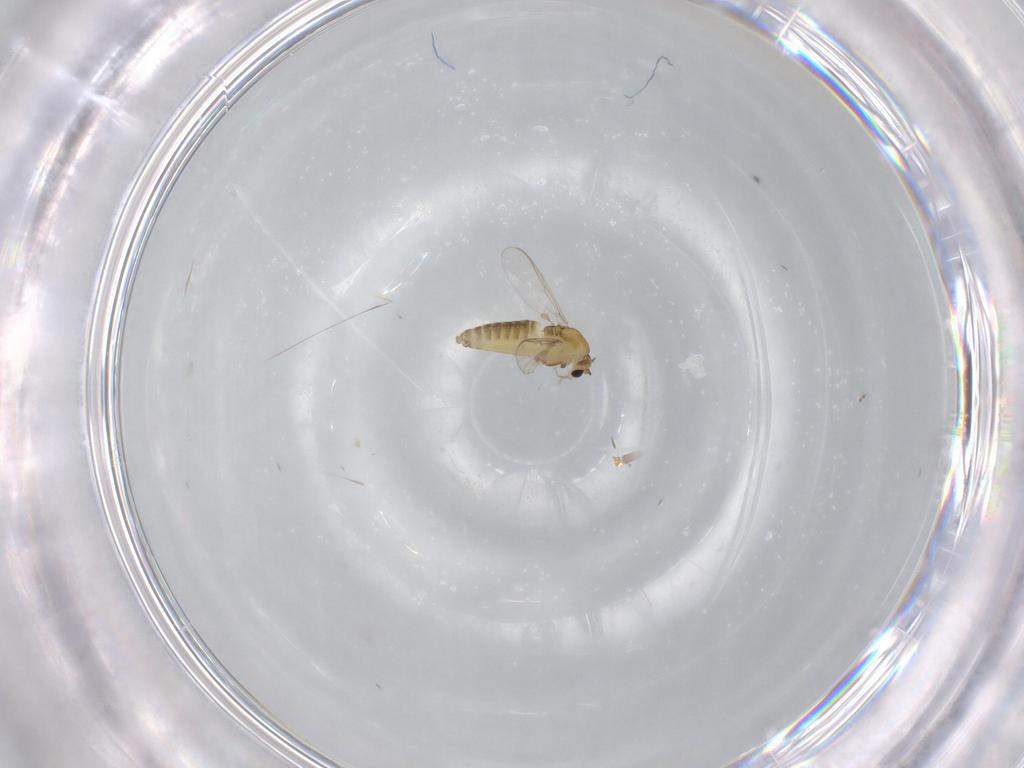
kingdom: Animalia
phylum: Arthropoda
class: Insecta
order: Diptera
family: Chironomidae
